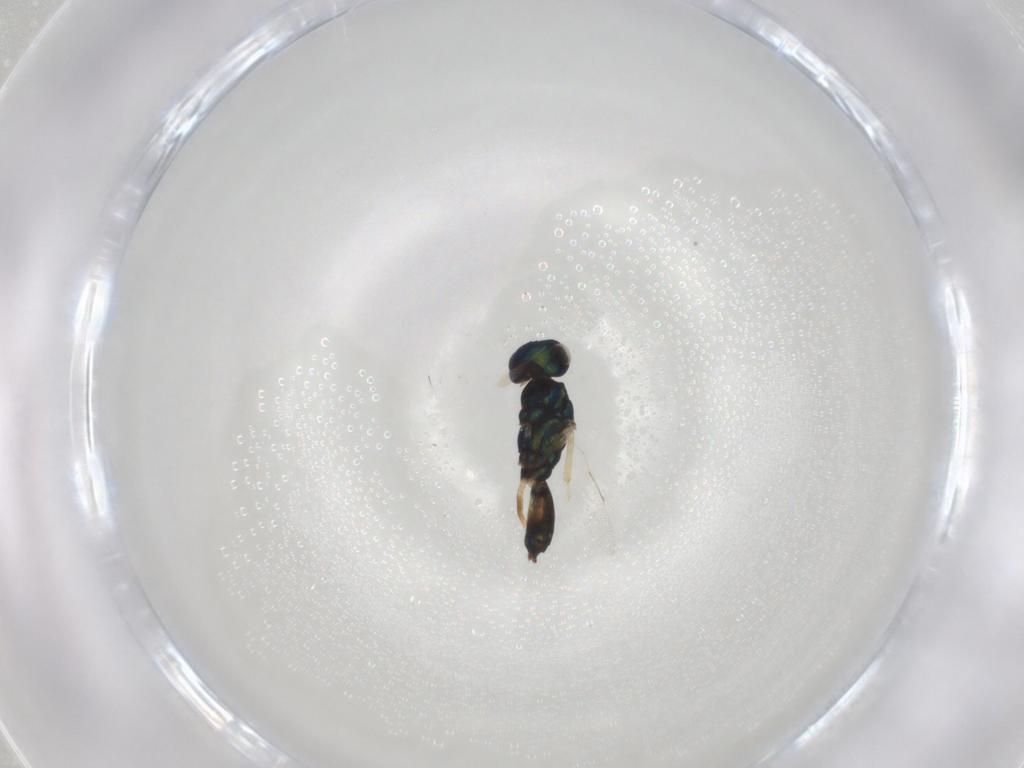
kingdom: Animalia
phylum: Arthropoda
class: Insecta
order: Hymenoptera
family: Pteromalidae
